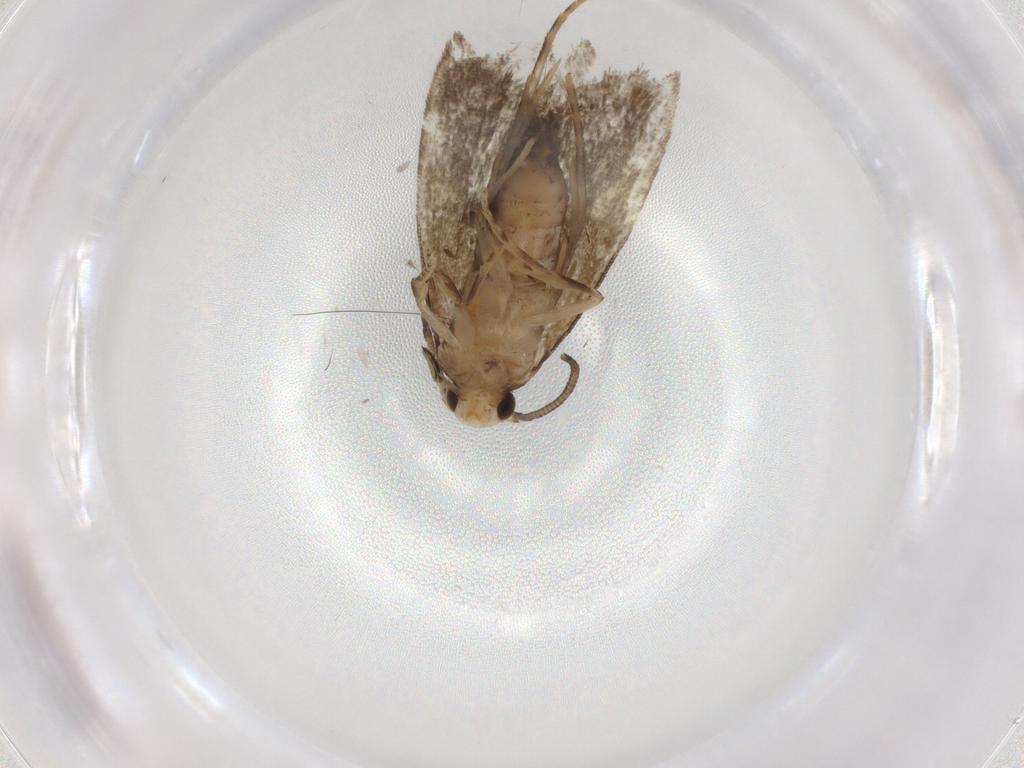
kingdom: Animalia
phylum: Arthropoda
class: Insecta
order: Lepidoptera
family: Dryadaulidae
